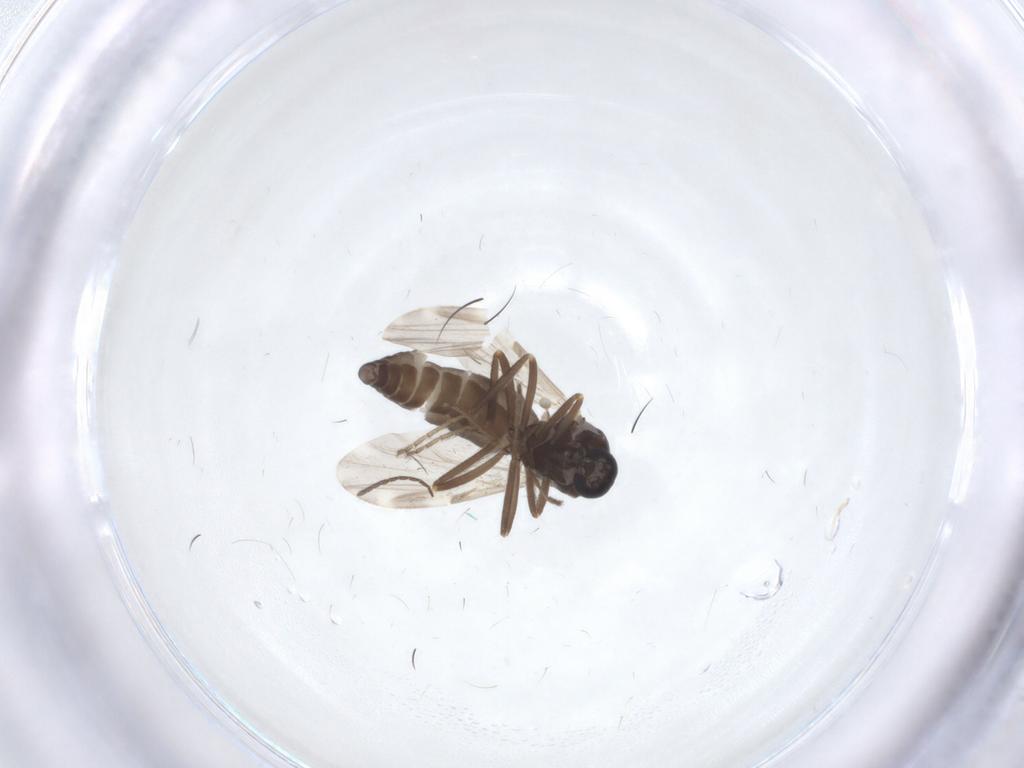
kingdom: Animalia
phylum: Arthropoda
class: Insecta
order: Diptera
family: Ceratopogonidae
